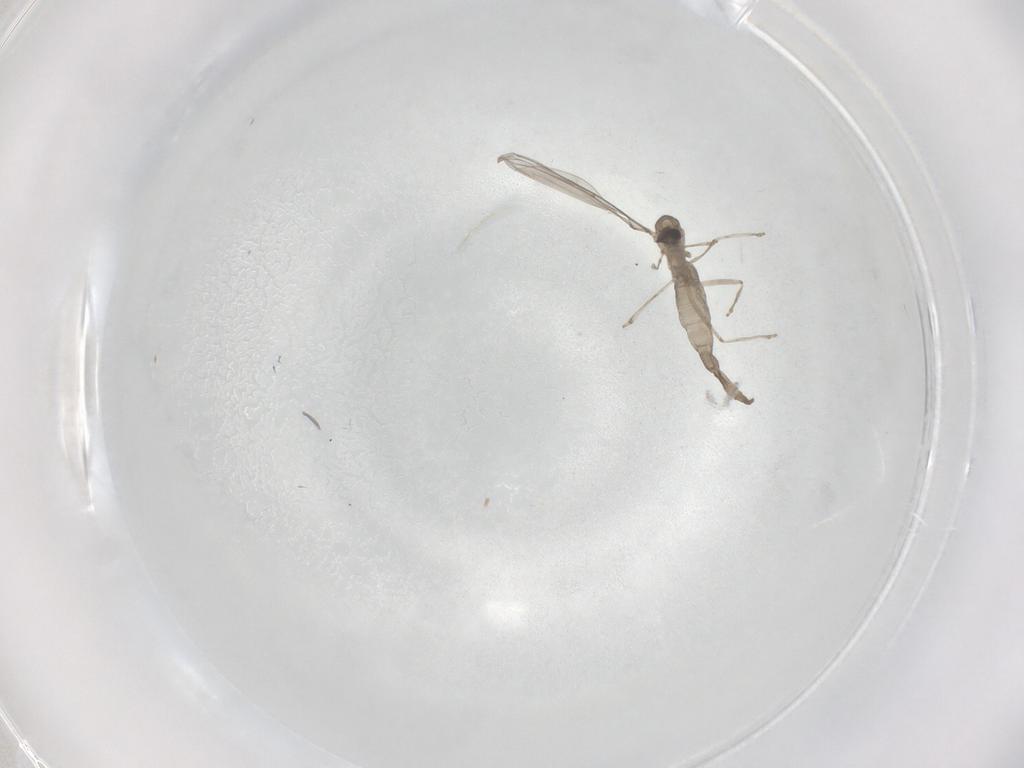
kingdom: Animalia
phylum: Arthropoda
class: Insecta
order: Diptera
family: Cecidomyiidae
